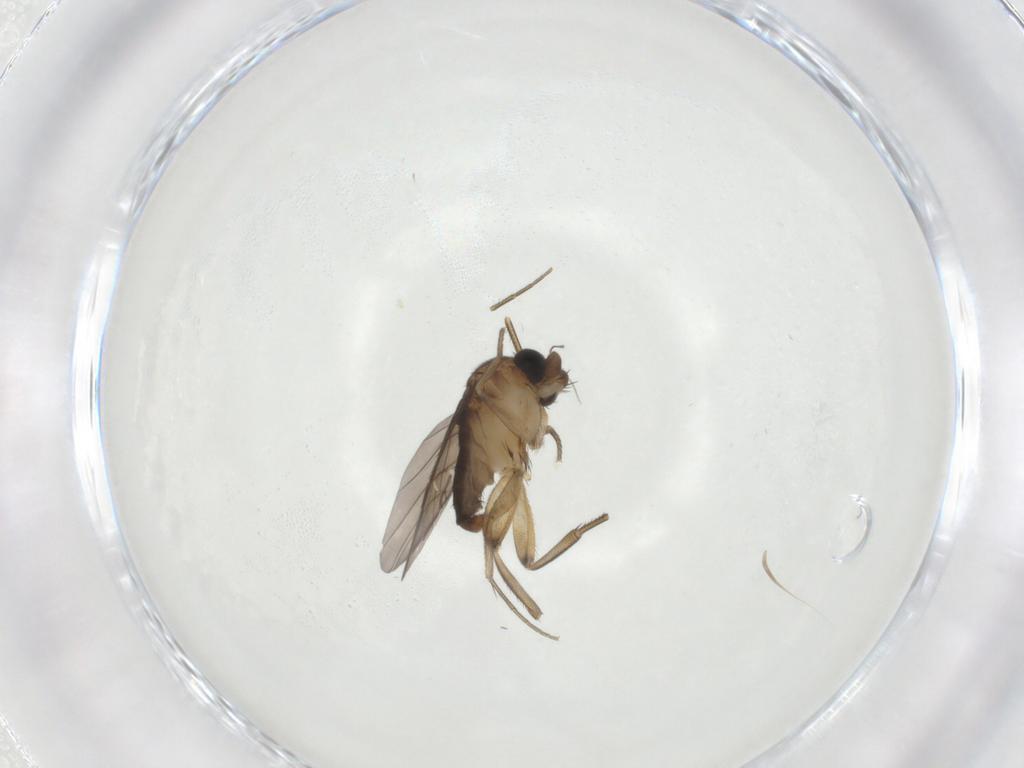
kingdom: Animalia
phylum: Arthropoda
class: Insecta
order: Diptera
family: Phoridae
